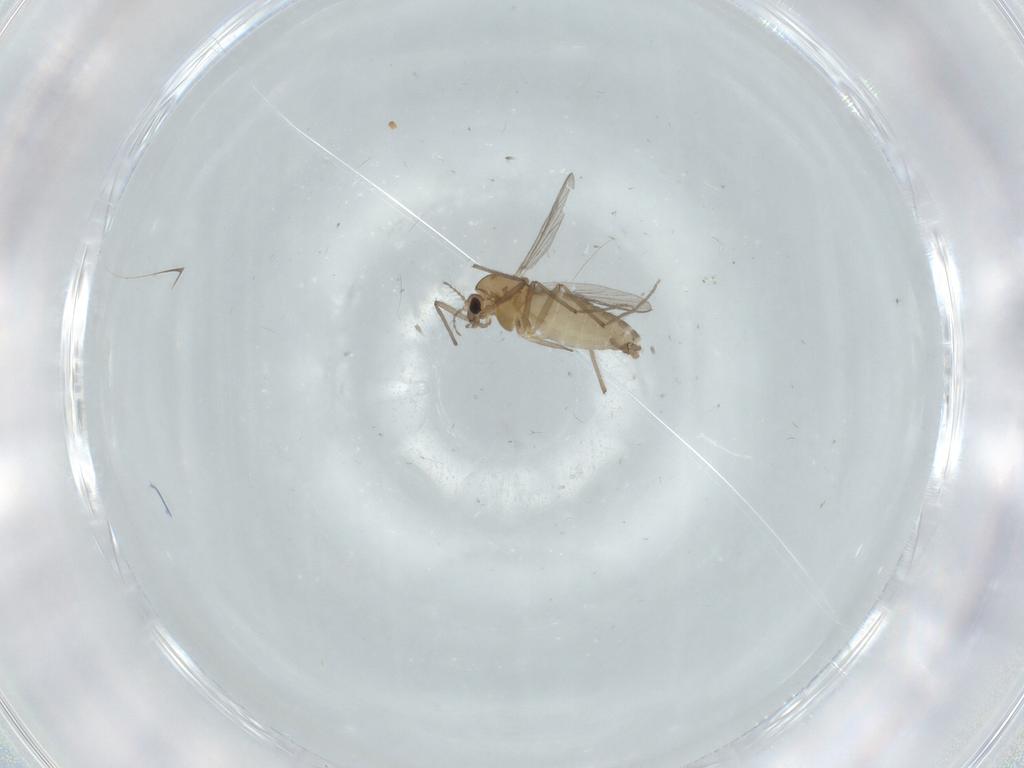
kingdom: Animalia
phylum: Arthropoda
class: Insecta
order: Diptera
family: Chironomidae
